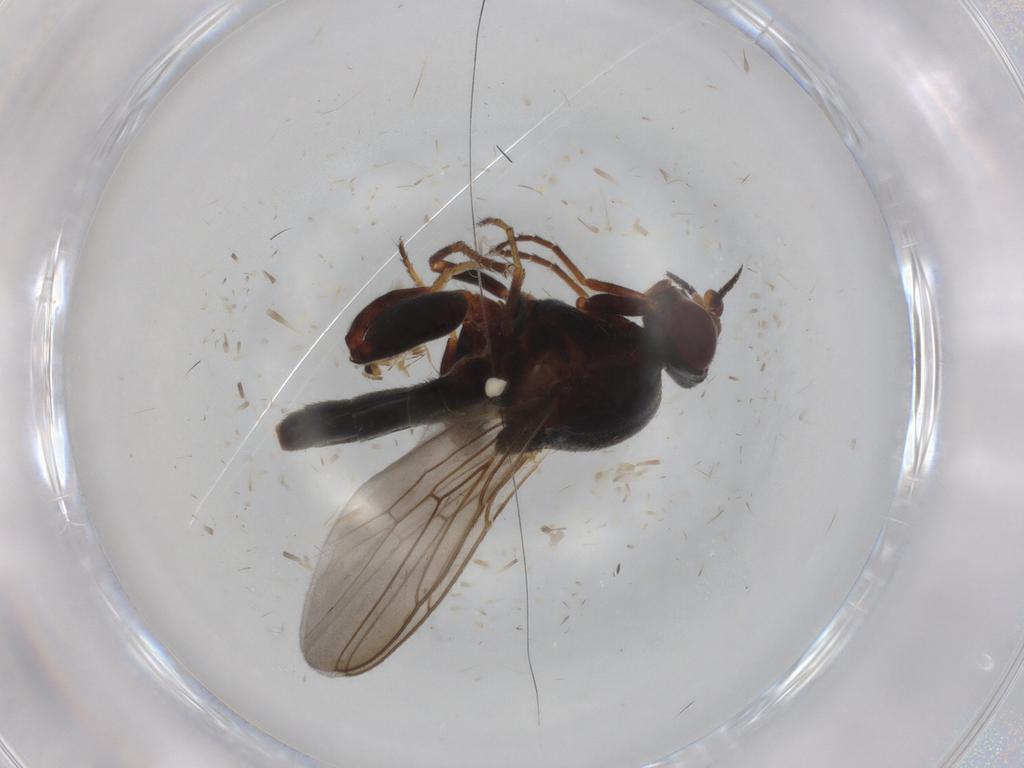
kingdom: Animalia
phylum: Arthropoda
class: Insecta
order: Diptera
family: Chloropidae
